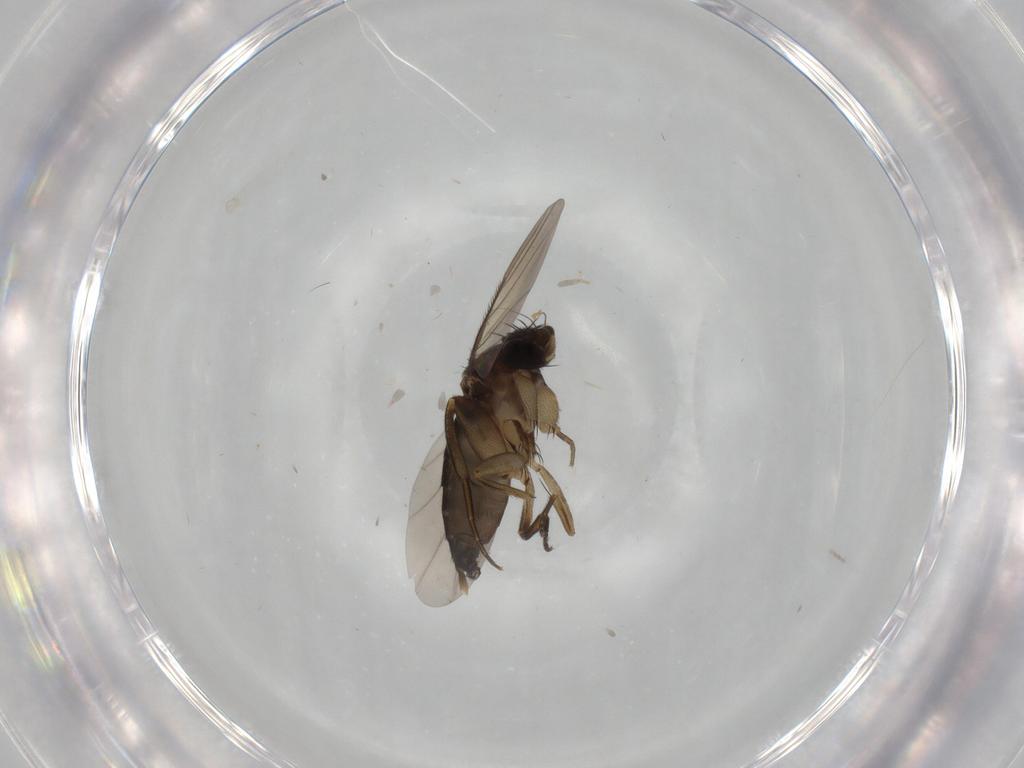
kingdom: Animalia
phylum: Arthropoda
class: Insecta
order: Diptera
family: Phoridae
